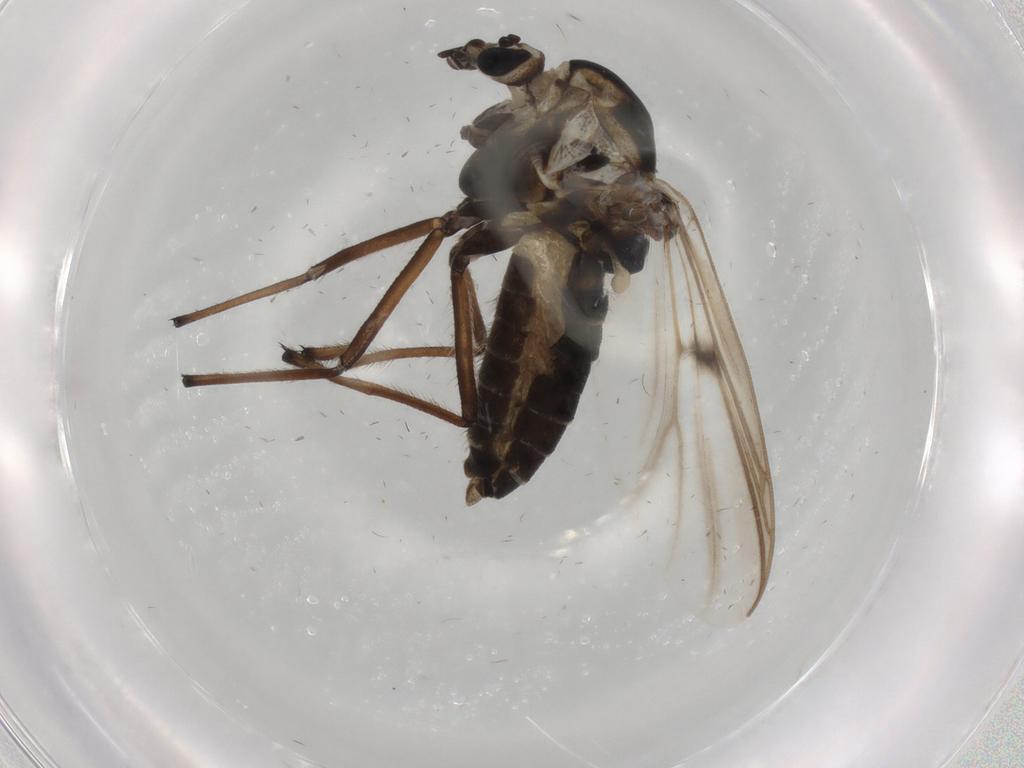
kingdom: Animalia
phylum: Arthropoda
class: Insecta
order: Diptera
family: Chironomidae
